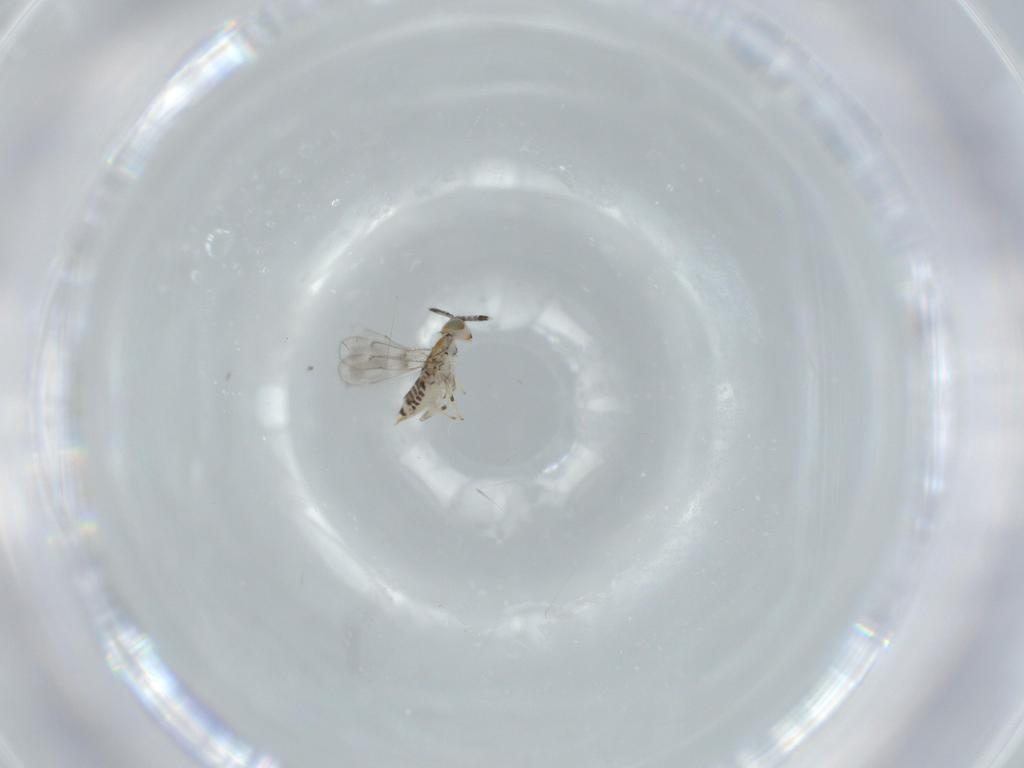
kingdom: Animalia
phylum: Arthropoda
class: Insecta
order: Hymenoptera
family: Aphelinidae
